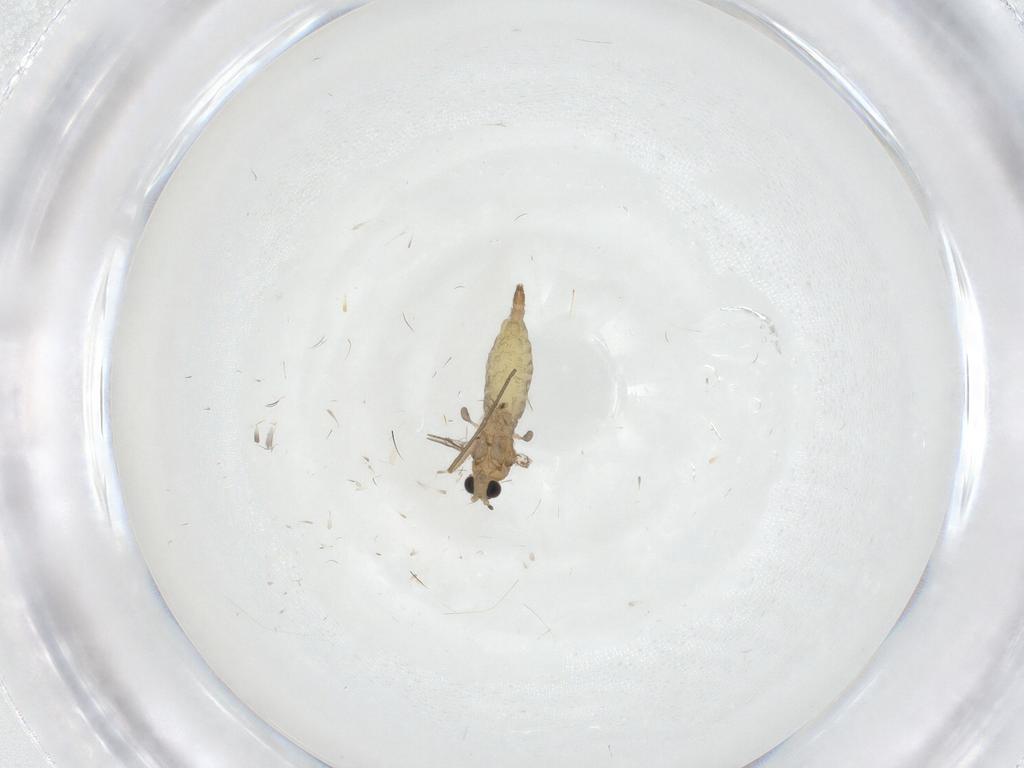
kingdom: Animalia
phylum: Arthropoda
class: Insecta
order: Diptera
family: Sciaridae
